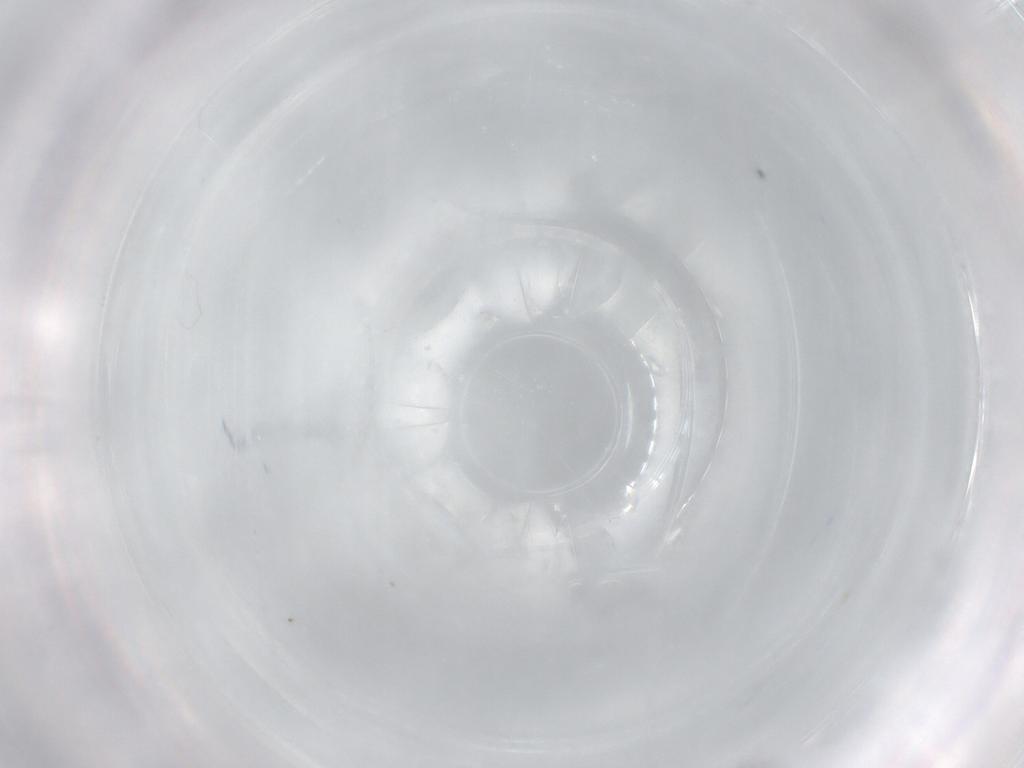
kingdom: Animalia
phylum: Arthropoda
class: Collembola
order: Entomobryomorpha
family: Entomobryidae
